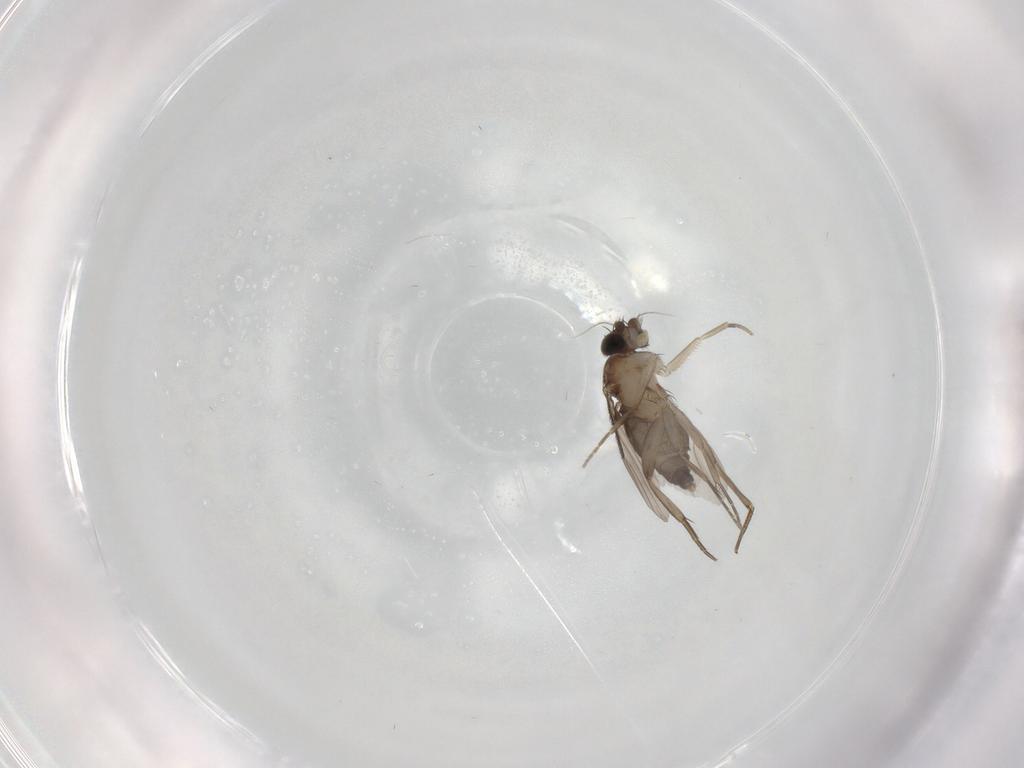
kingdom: Animalia
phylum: Arthropoda
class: Insecta
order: Diptera
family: Phoridae
